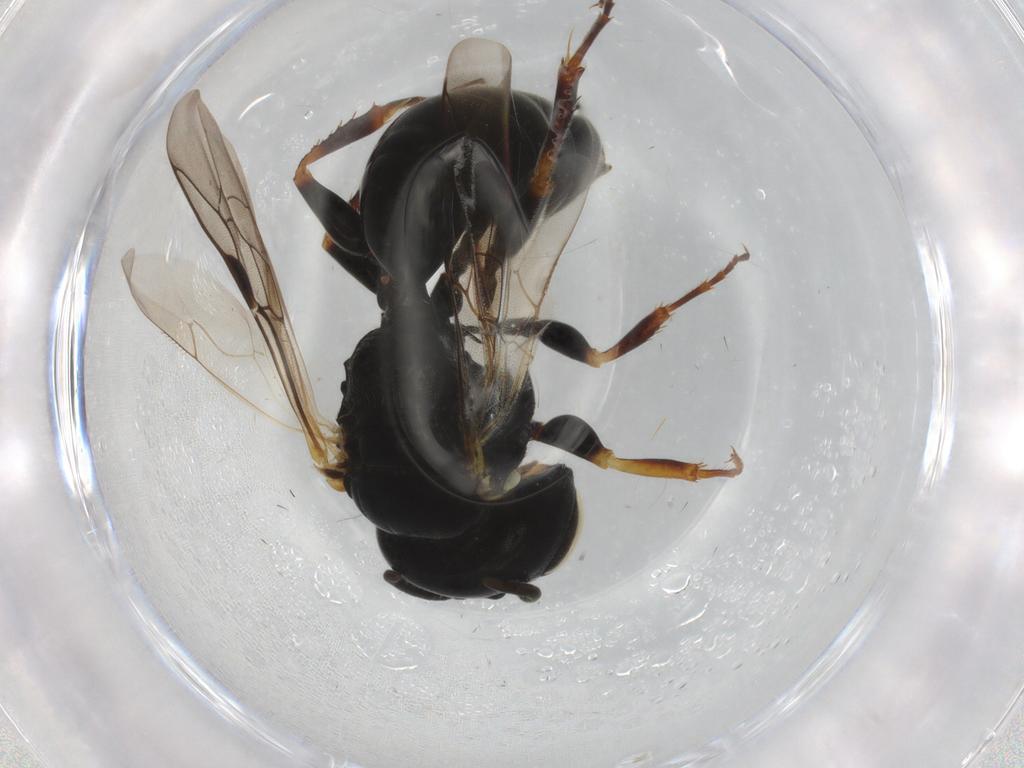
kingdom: Animalia
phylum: Arthropoda
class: Insecta
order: Hymenoptera
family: Crabronidae
